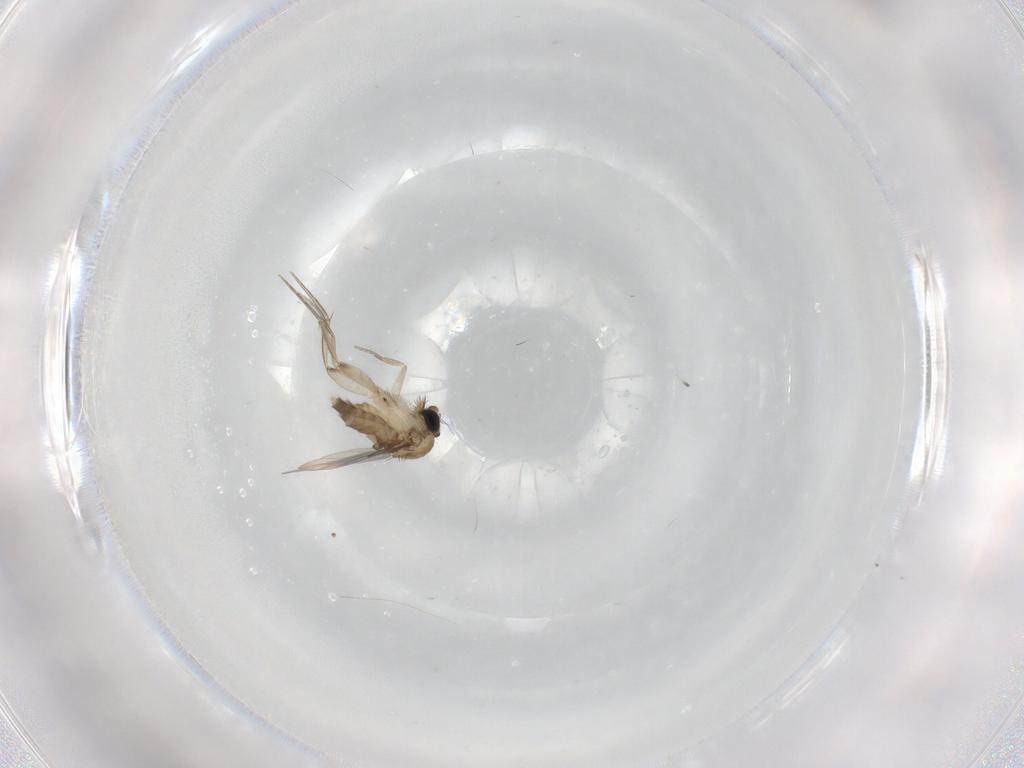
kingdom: Animalia
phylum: Arthropoda
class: Insecta
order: Diptera
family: Phoridae
